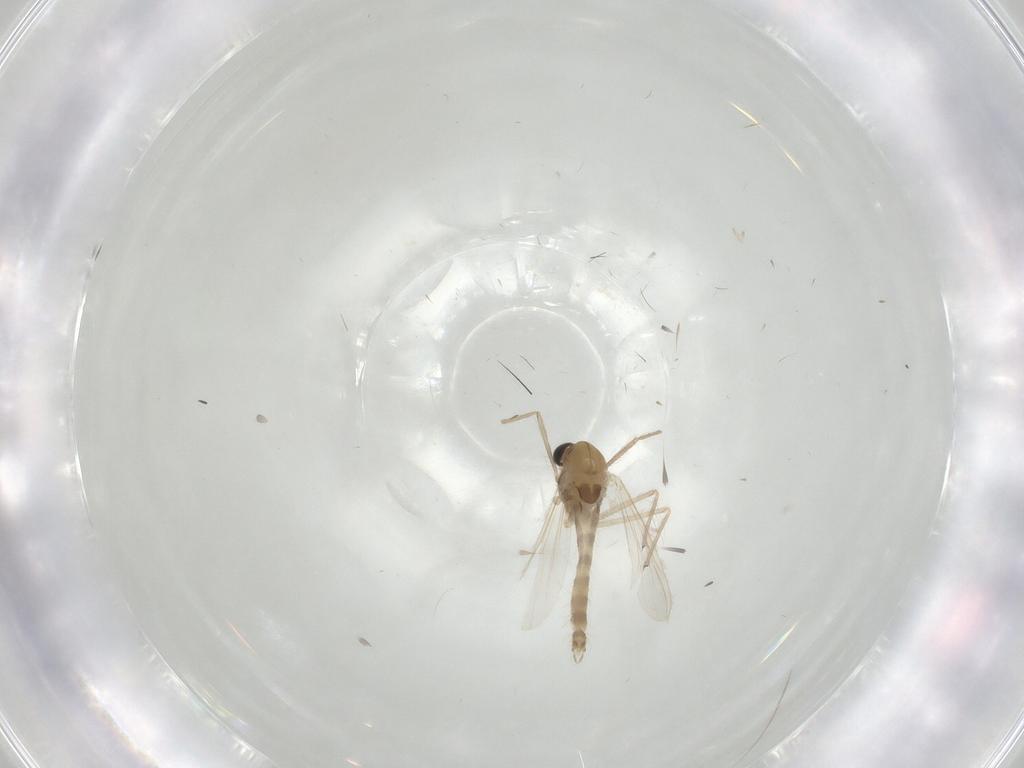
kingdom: Animalia
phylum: Arthropoda
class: Insecta
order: Diptera
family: Chironomidae
